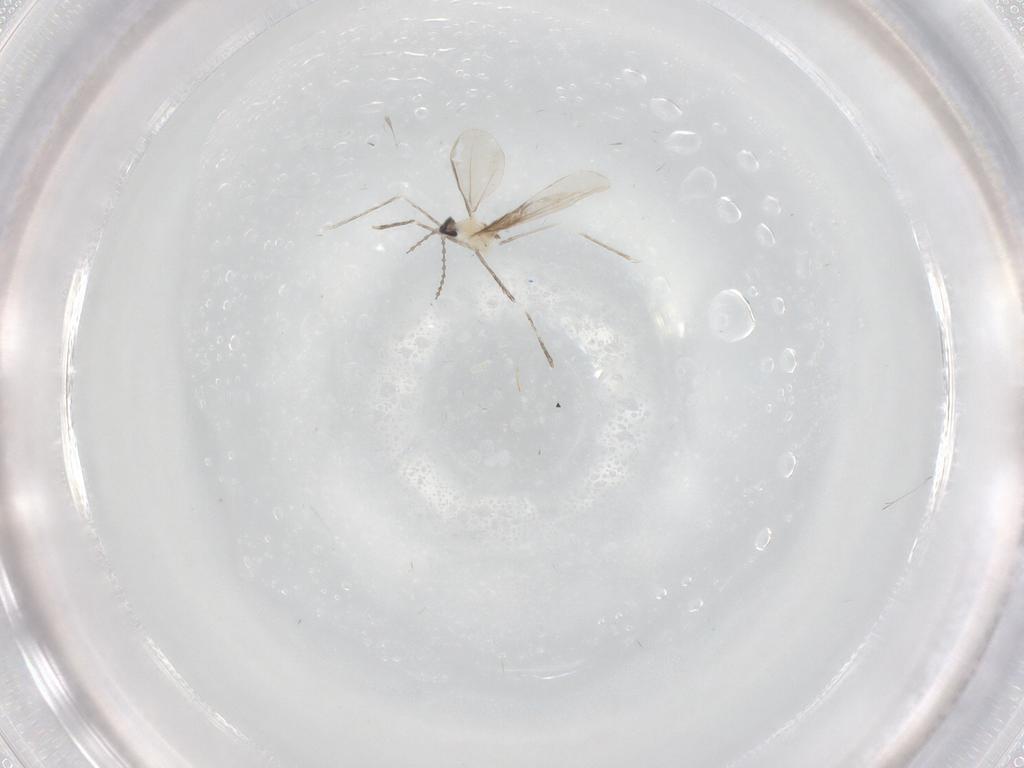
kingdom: Animalia
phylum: Arthropoda
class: Insecta
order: Diptera
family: Cecidomyiidae
